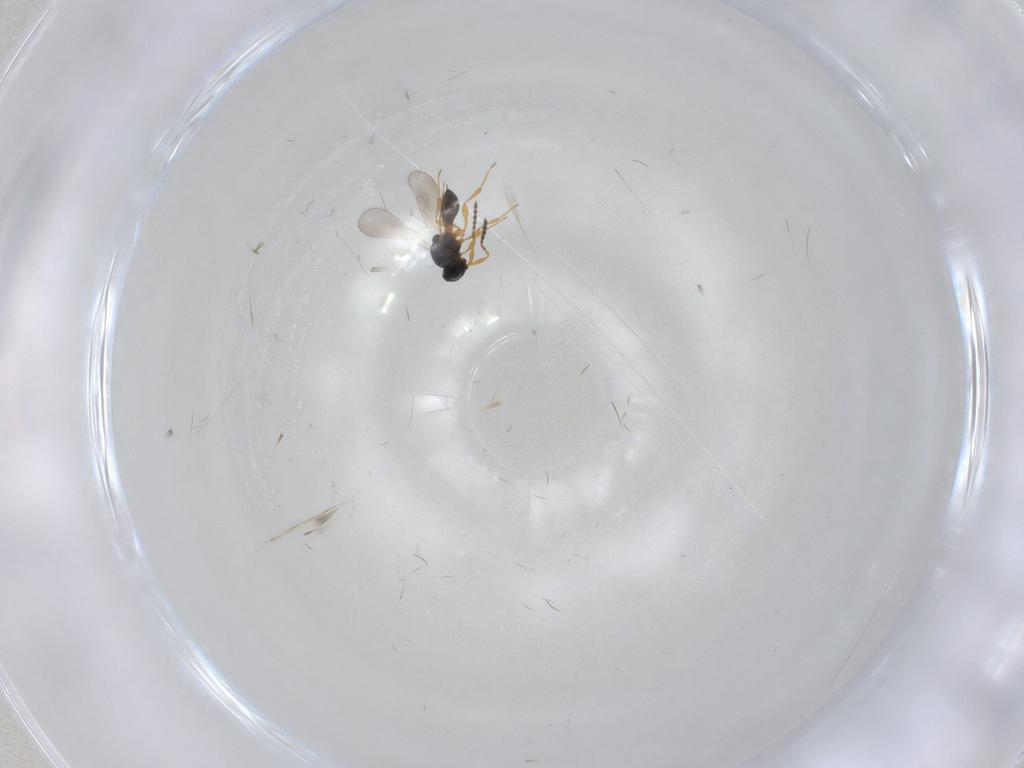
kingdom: Animalia
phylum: Arthropoda
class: Insecta
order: Hymenoptera
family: Platygastridae
